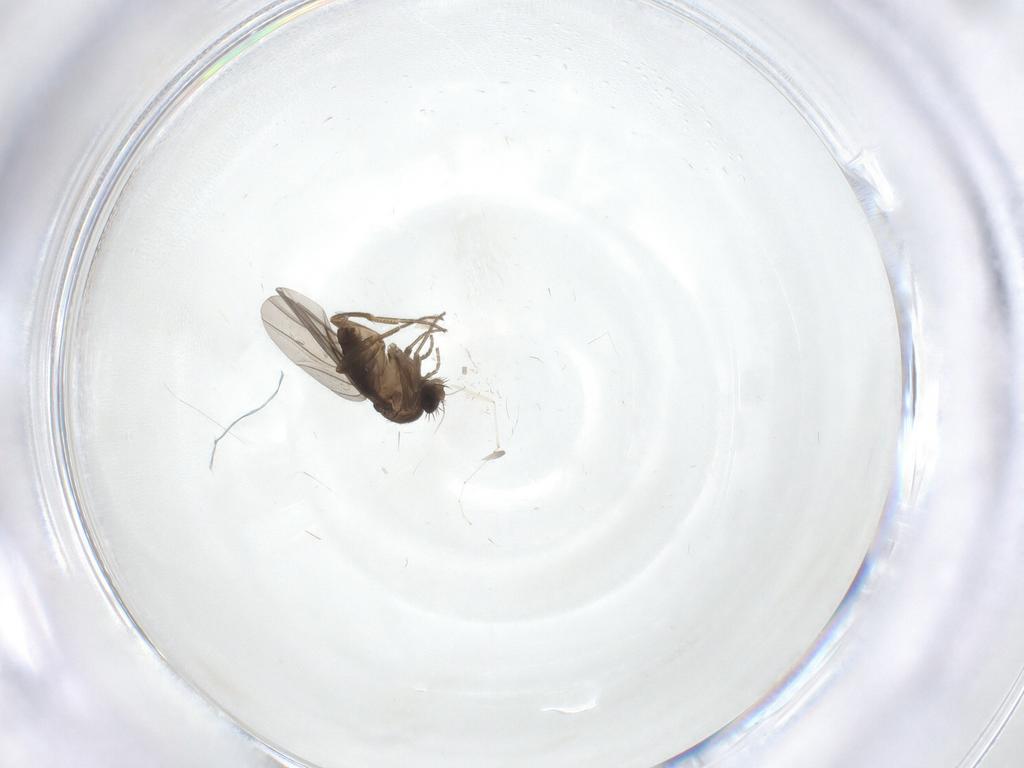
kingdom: Animalia
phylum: Arthropoda
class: Insecta
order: Diptera
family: Phoridae
